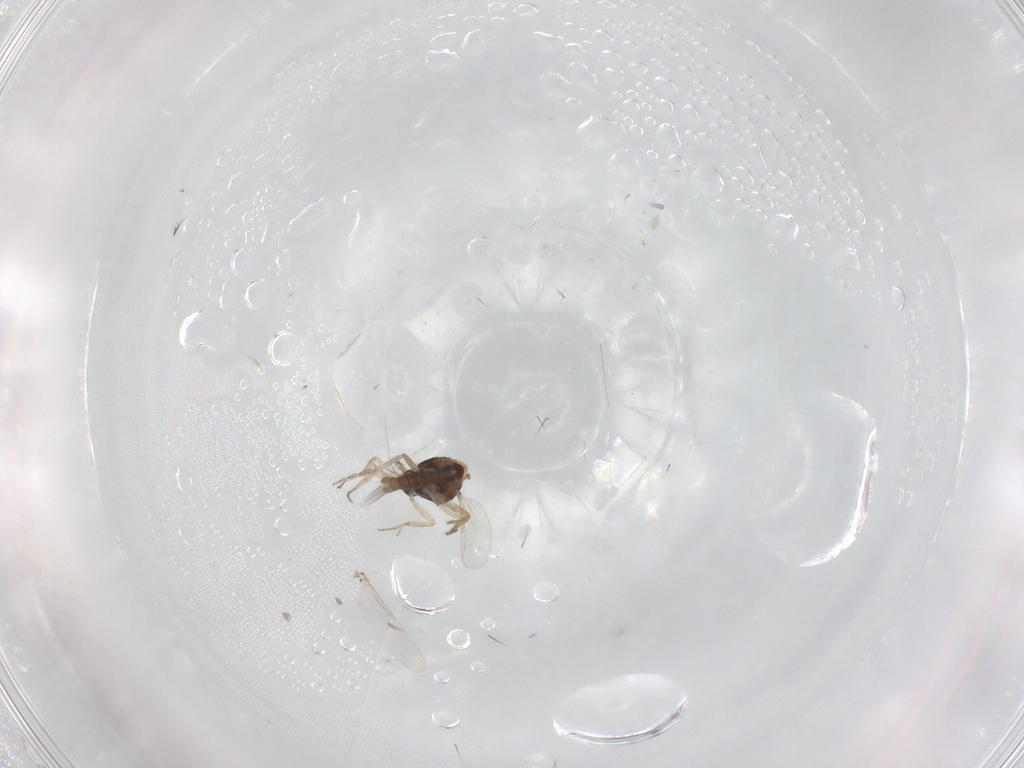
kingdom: Animalia
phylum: Arthropoda
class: Insecta
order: Diptera
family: Ceratopogonidae
